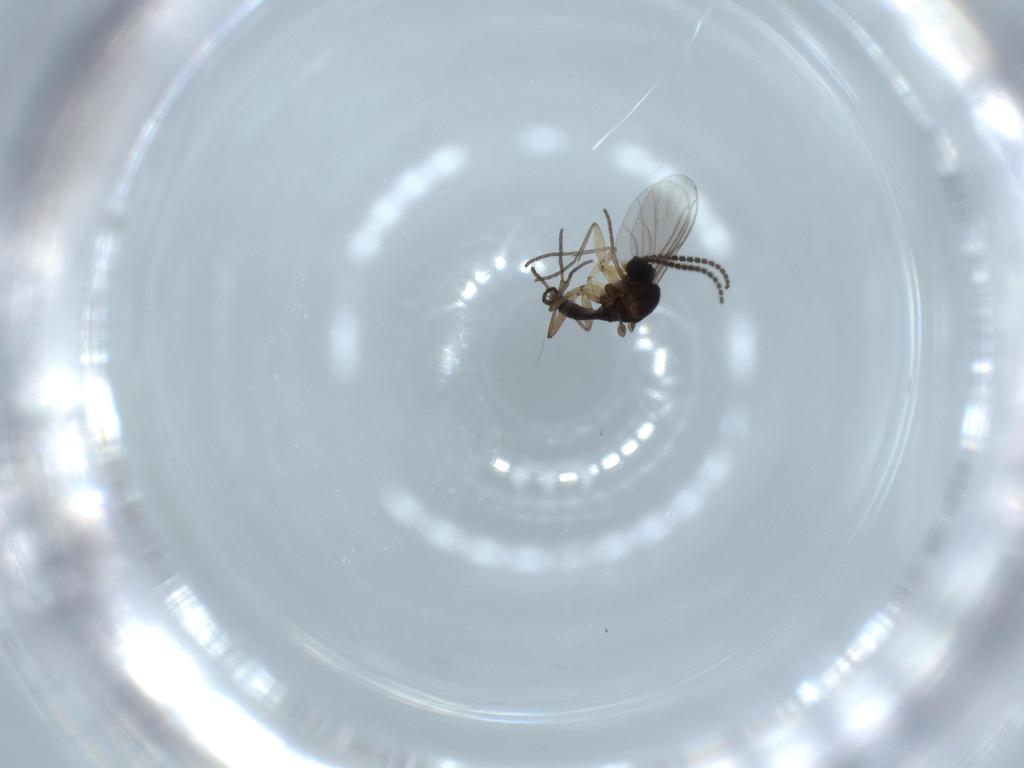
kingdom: Animalia
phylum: Arthropoda
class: Insecta
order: Diptera
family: Sciaridae
